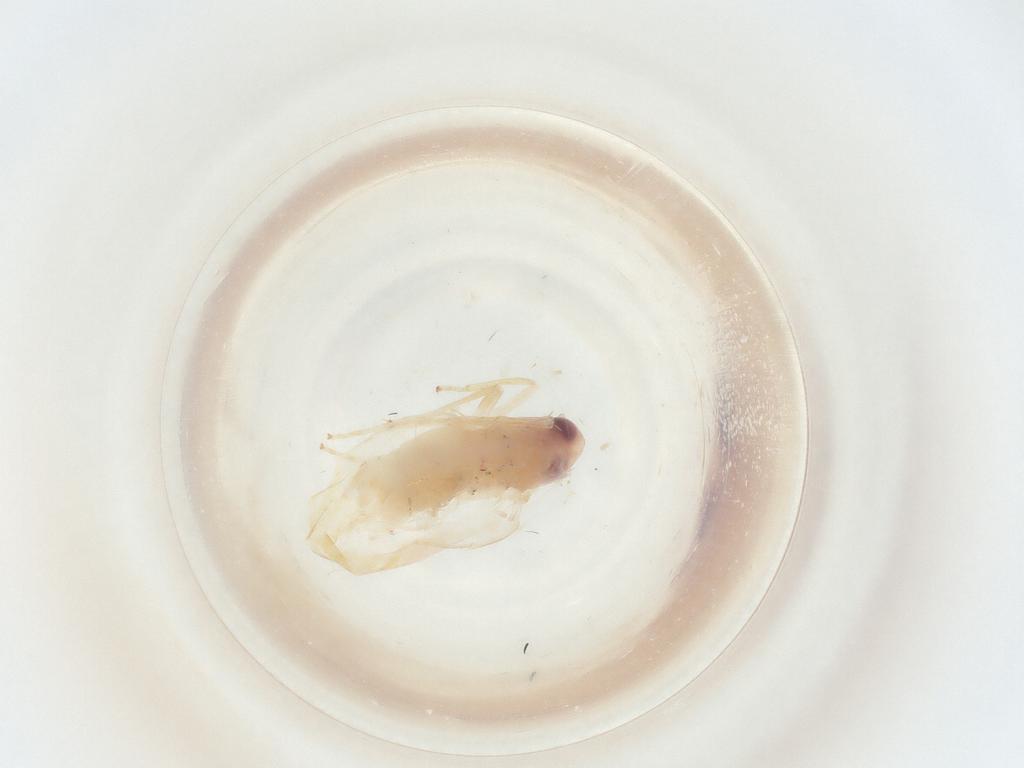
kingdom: Animalia
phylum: Arthropoda
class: Insecta
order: Hymenoptera
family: Dryinidae
